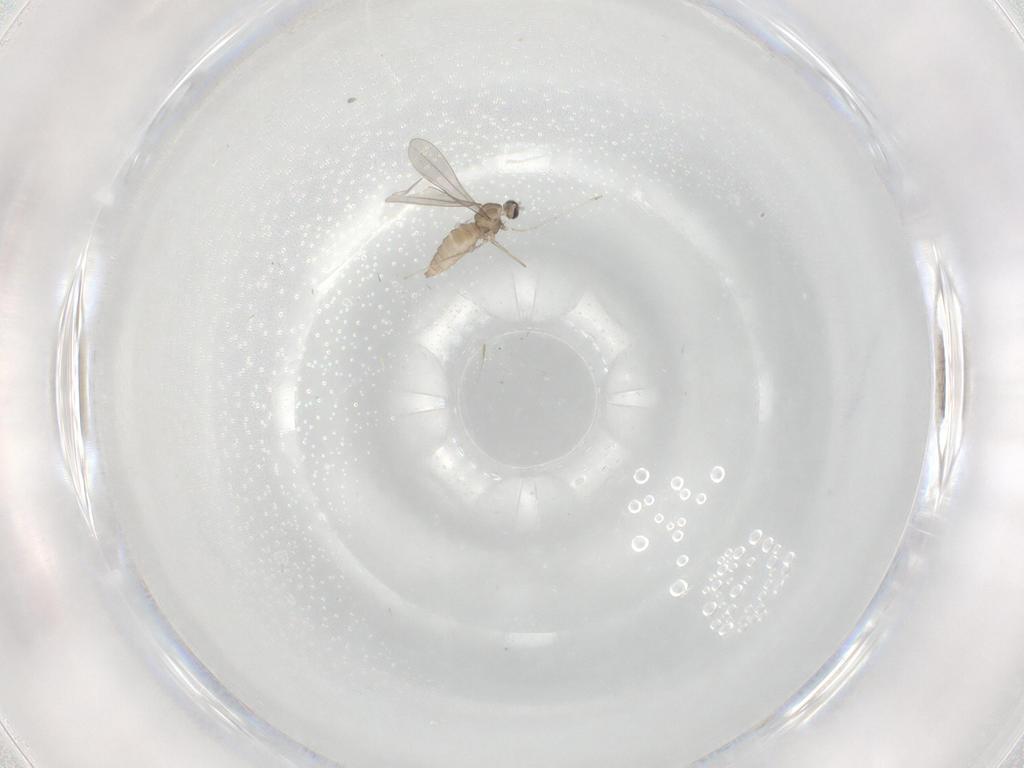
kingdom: Animalia
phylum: Arthropoda
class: Insecta
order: Diptera
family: Cecidomyiidae
